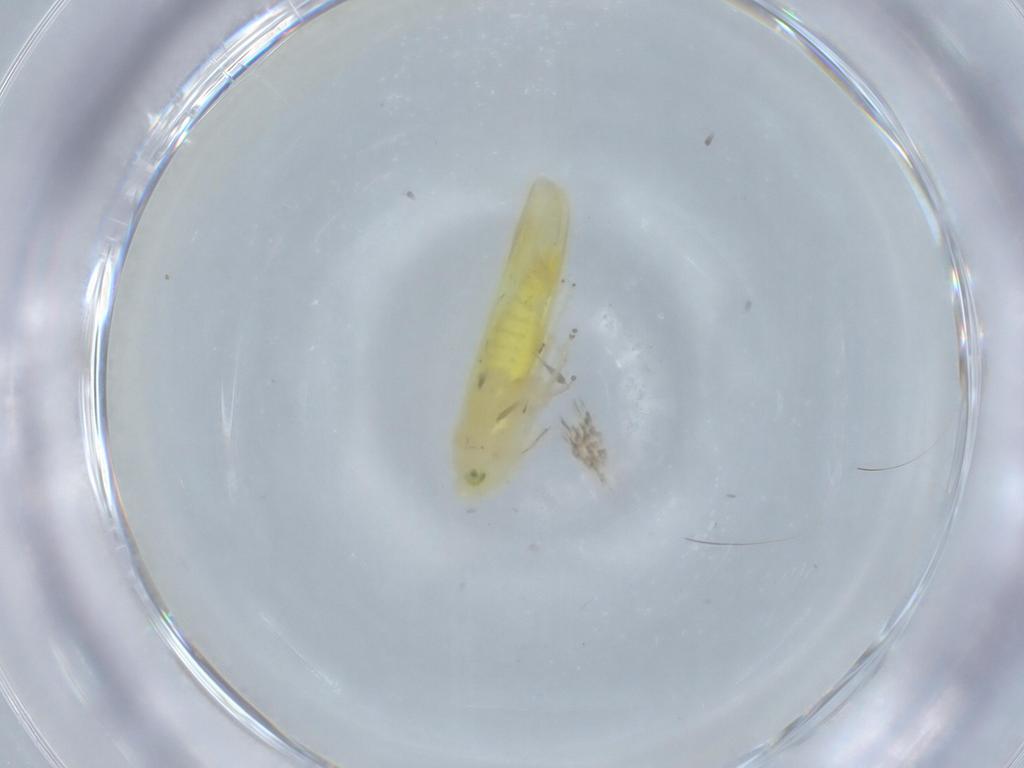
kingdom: Animalia
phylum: Arthropoda
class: Insecta
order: Hemiptera
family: Cicadellidae
